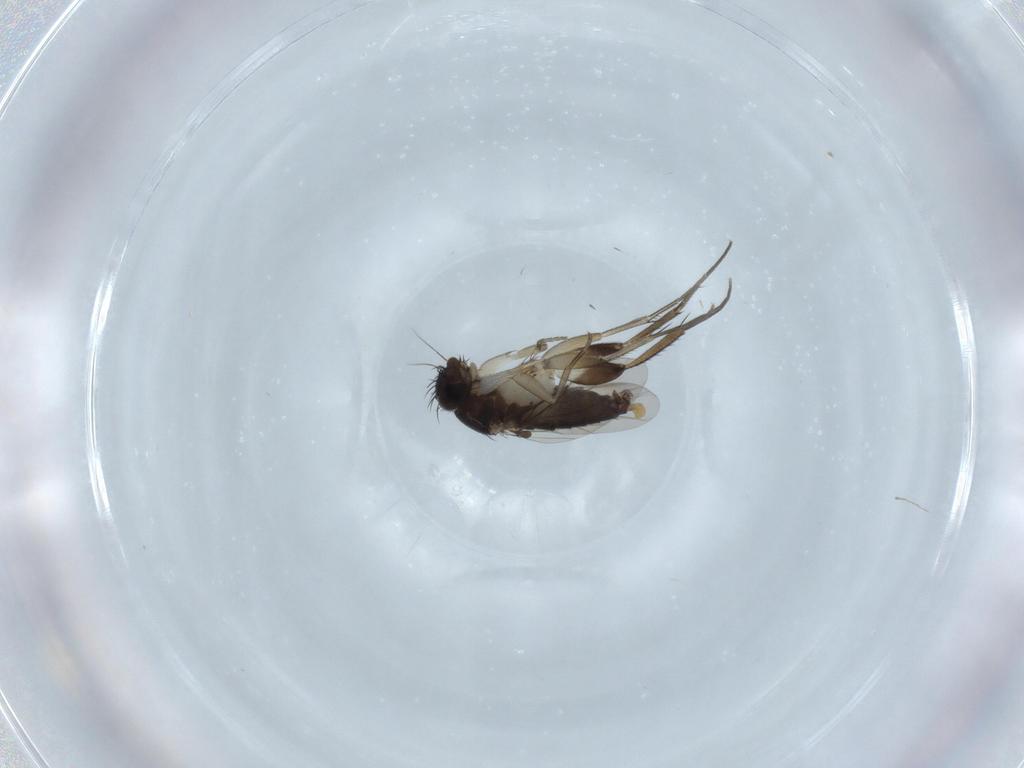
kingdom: Animalia
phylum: Arthropoda
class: Insecta
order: Diptera
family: Phoridae
